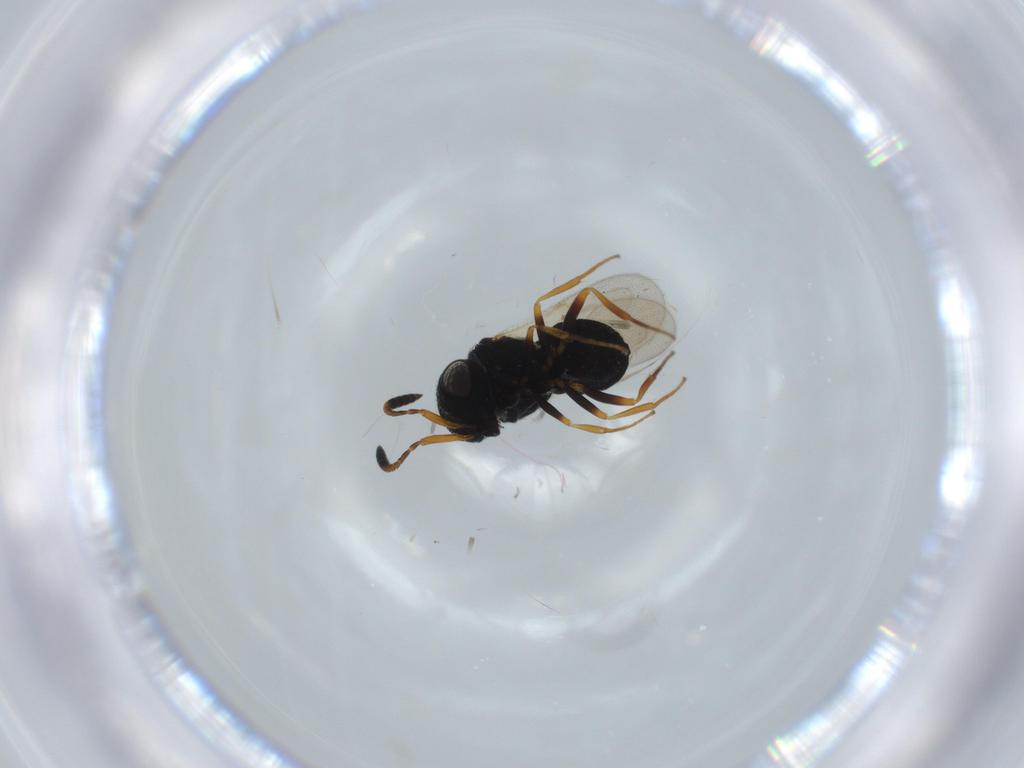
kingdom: Animalia
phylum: Arthropoda
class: Insecta
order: Hymenoptera
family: Scelionidae
